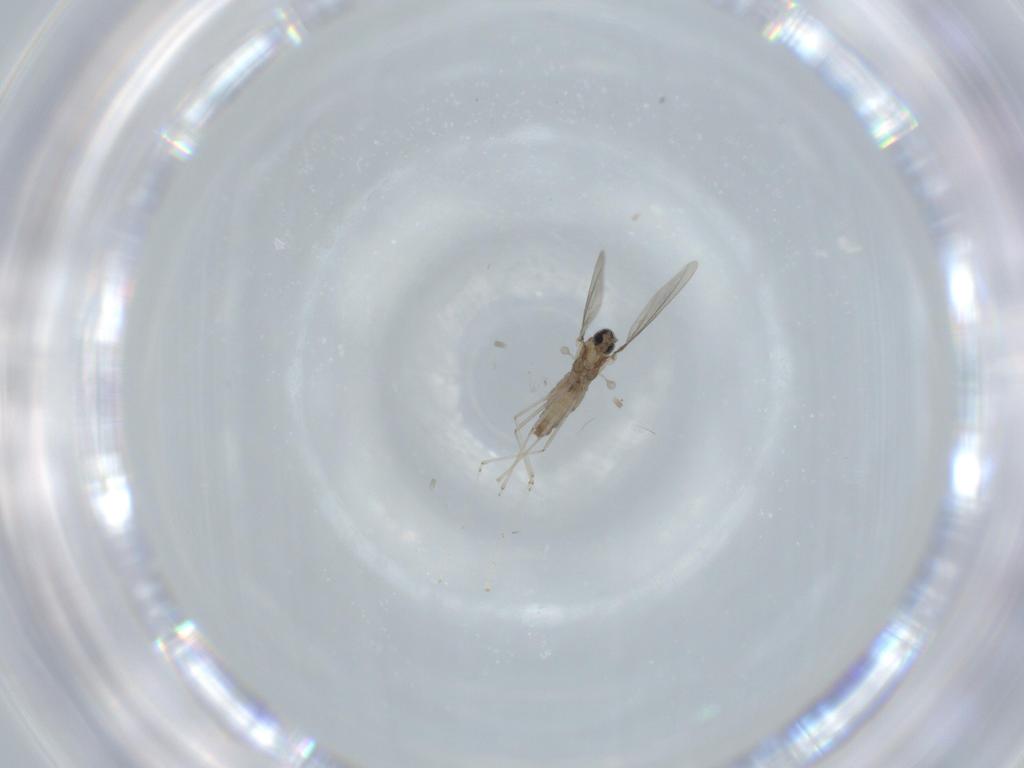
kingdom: Animalia
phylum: Arthropoda
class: Insecta
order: Diptera
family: Cecidomyiidae
